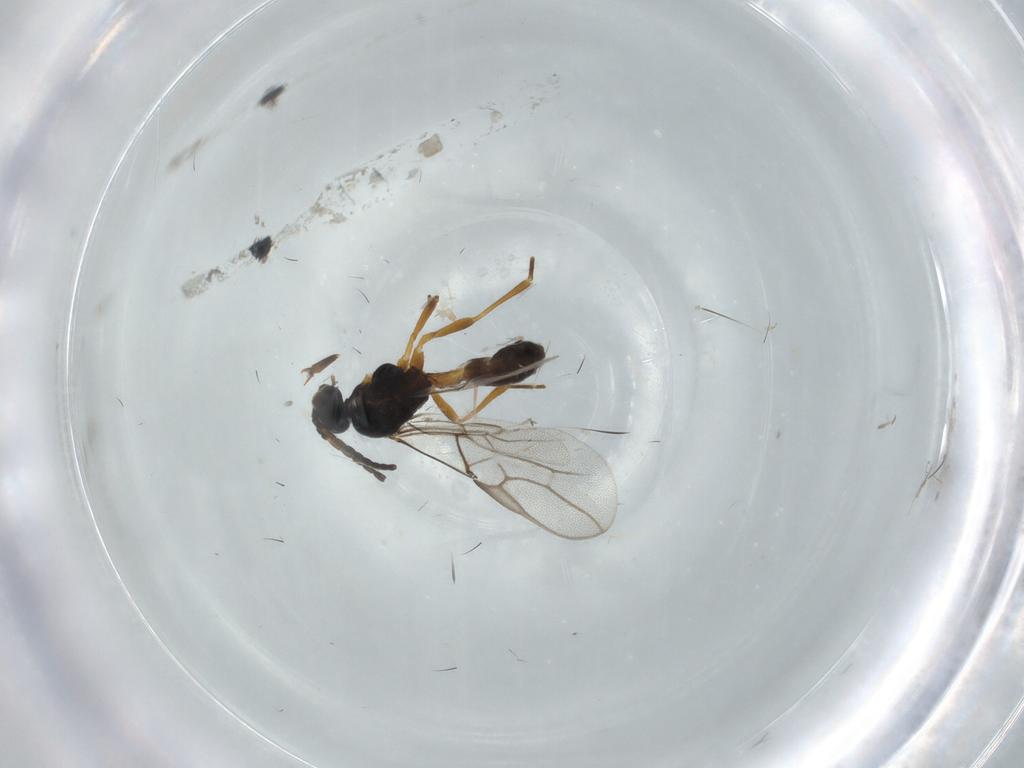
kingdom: Animalia
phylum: Arthropoda
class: Insecta
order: Hymenoptera
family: Braconidae
